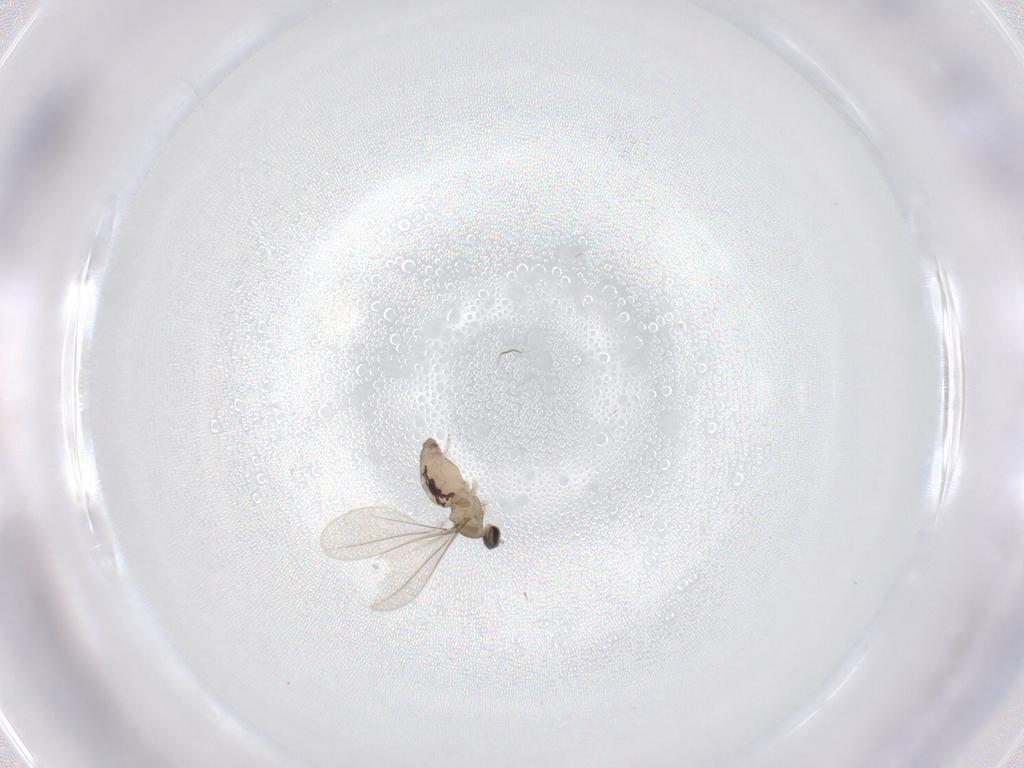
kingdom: Animalia
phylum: Arthropoda
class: Insecta
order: Diptera
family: Cecidomyiidae
